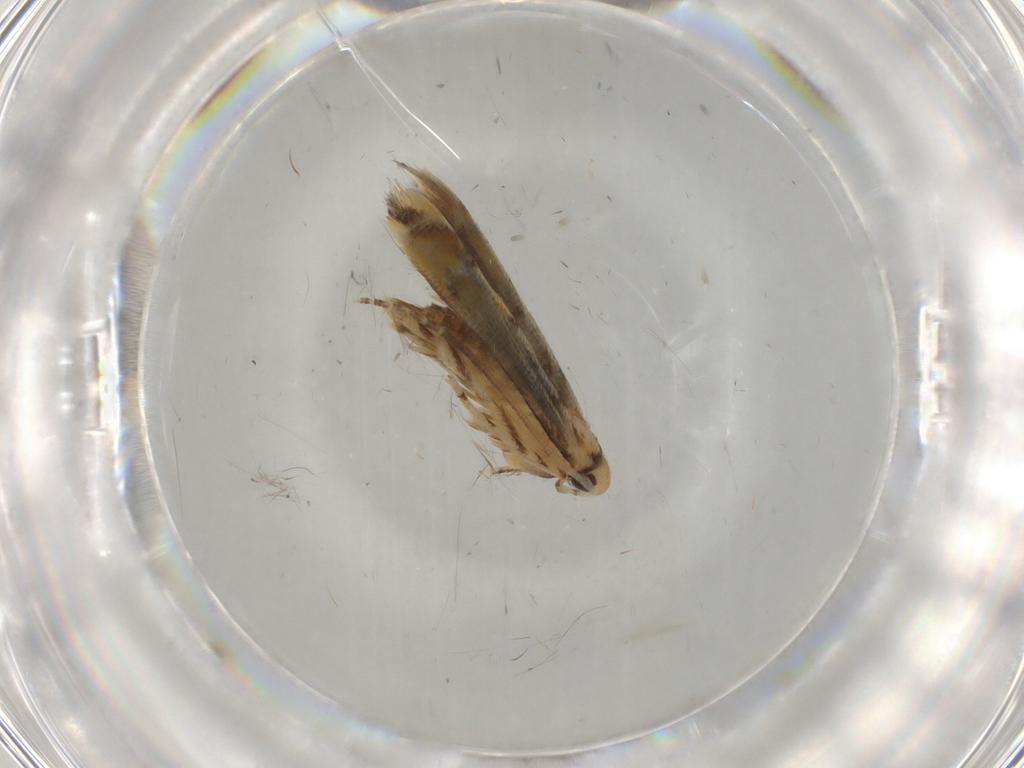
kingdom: Animalia
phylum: Arthropoda
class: Insecta
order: Lepidoptera
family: Momphidae
